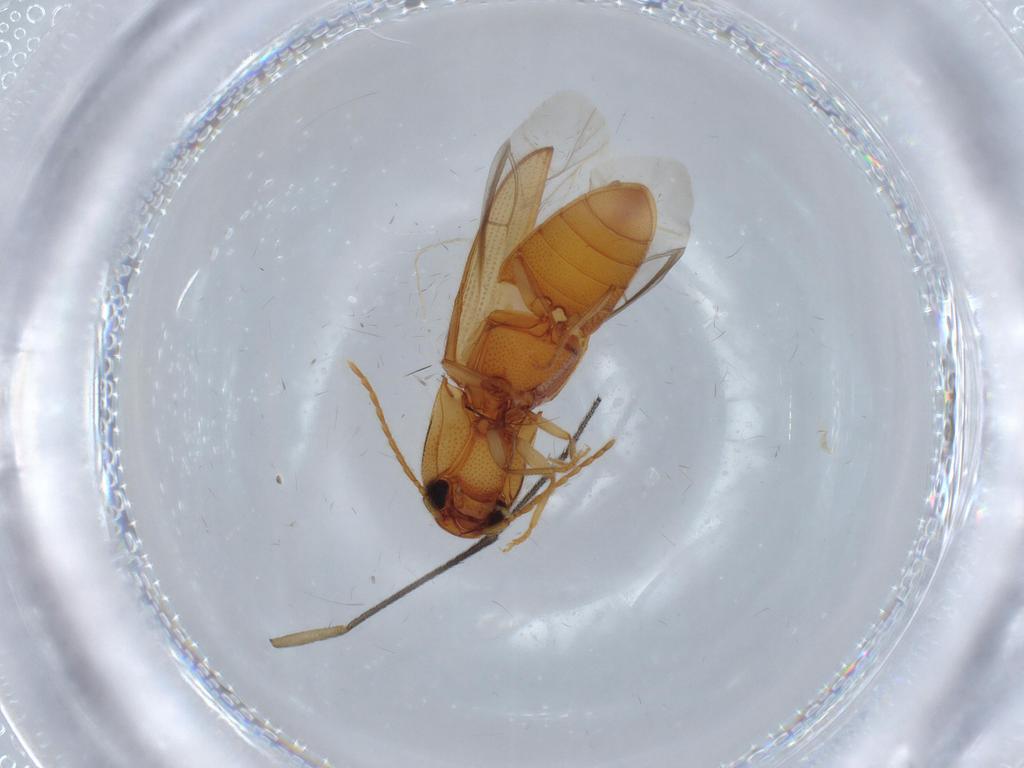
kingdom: Animalia
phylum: Arthropoda
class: Insecta
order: Coleoptera
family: Elateridae
